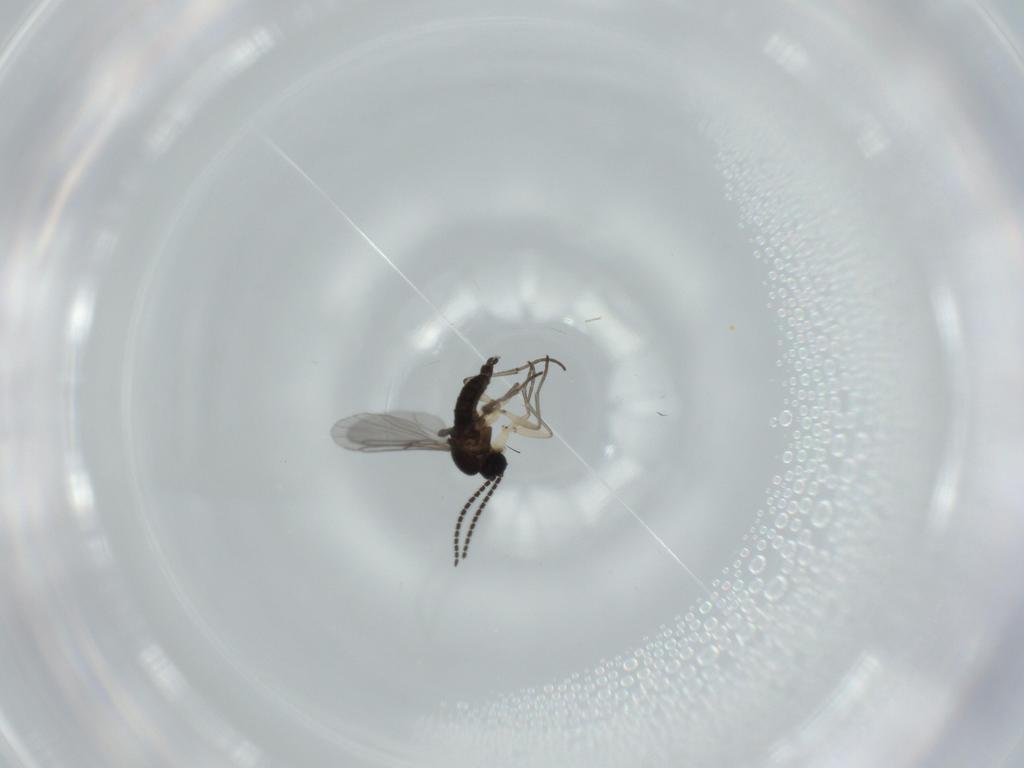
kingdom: Animalia
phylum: Arthropoda
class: Insecta
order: Diptera
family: Sciaridae
